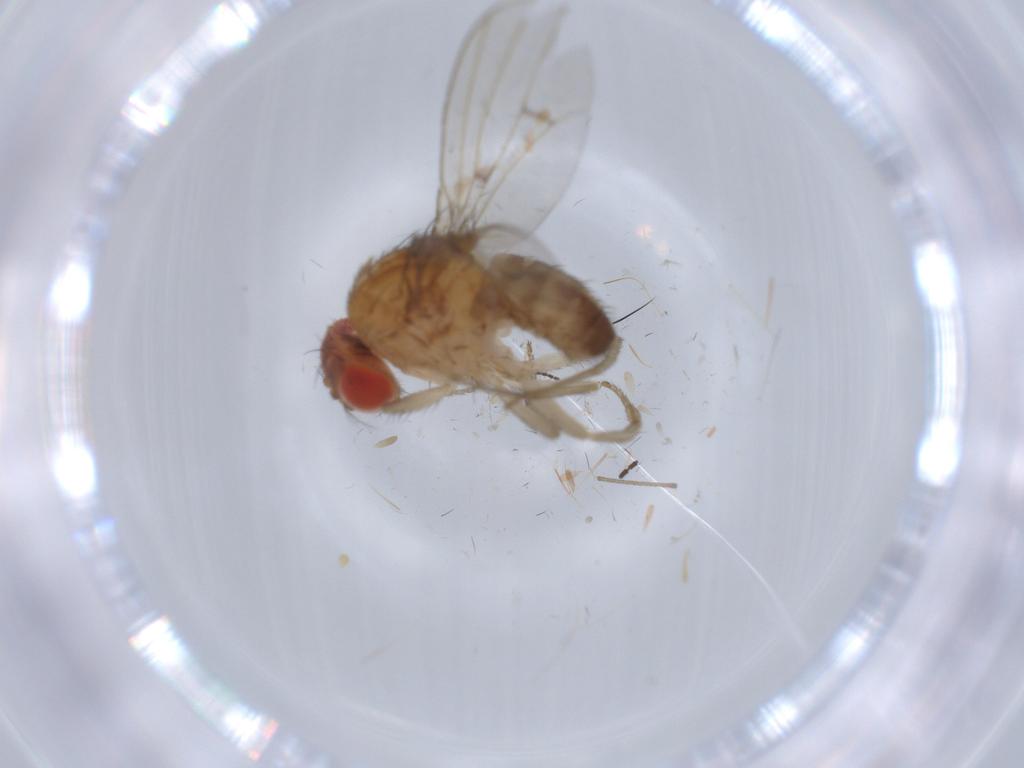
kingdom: Animalia
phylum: Arthropoda
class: Insecta
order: Diptera
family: Drosophilidae
